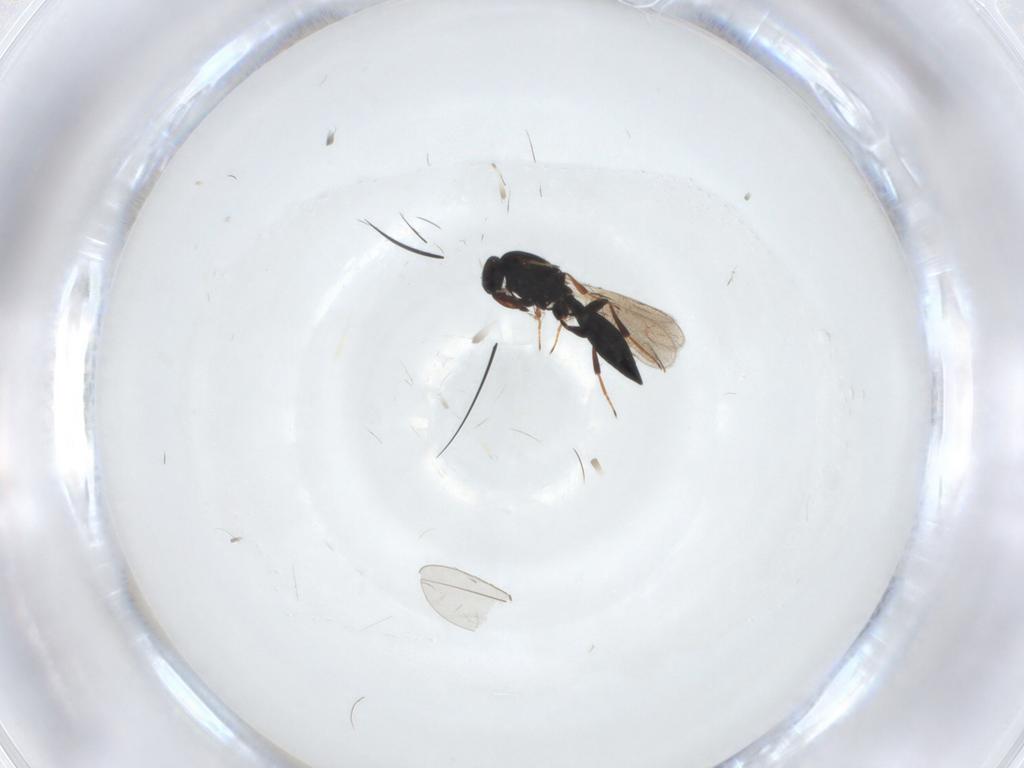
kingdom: Animalia
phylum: Arthropoda
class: Insecta
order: Hymenoptera
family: Platygastridae
